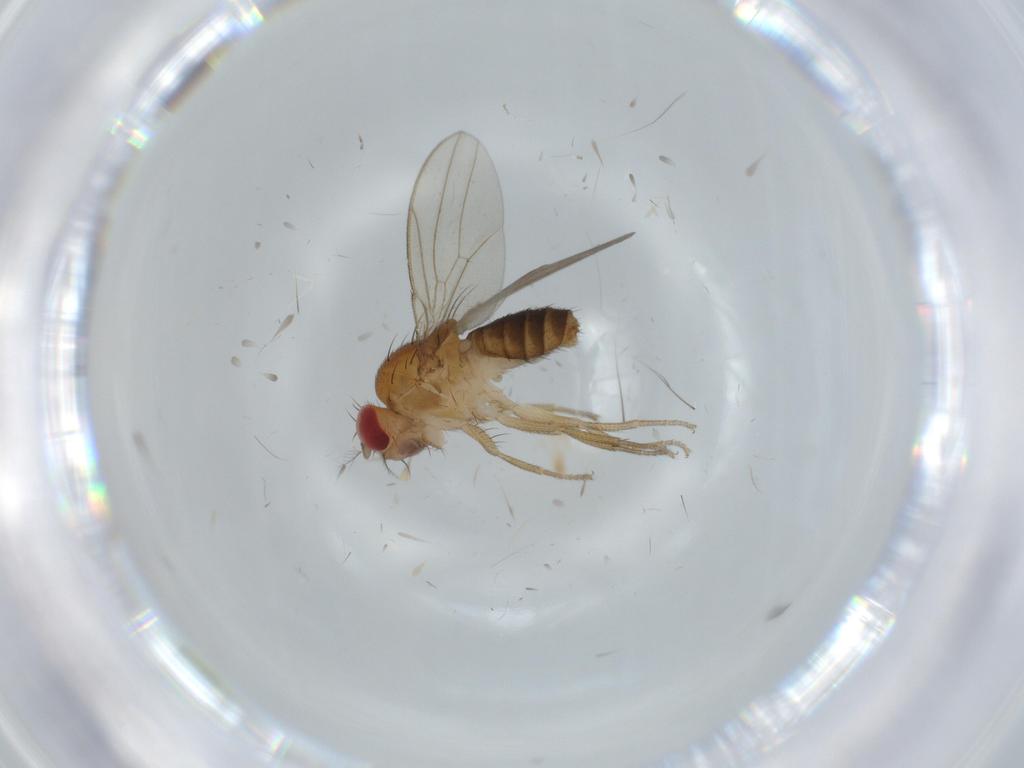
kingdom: Animalia
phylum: Arthropoda
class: Insecta
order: Diptera
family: Drosophilidae
